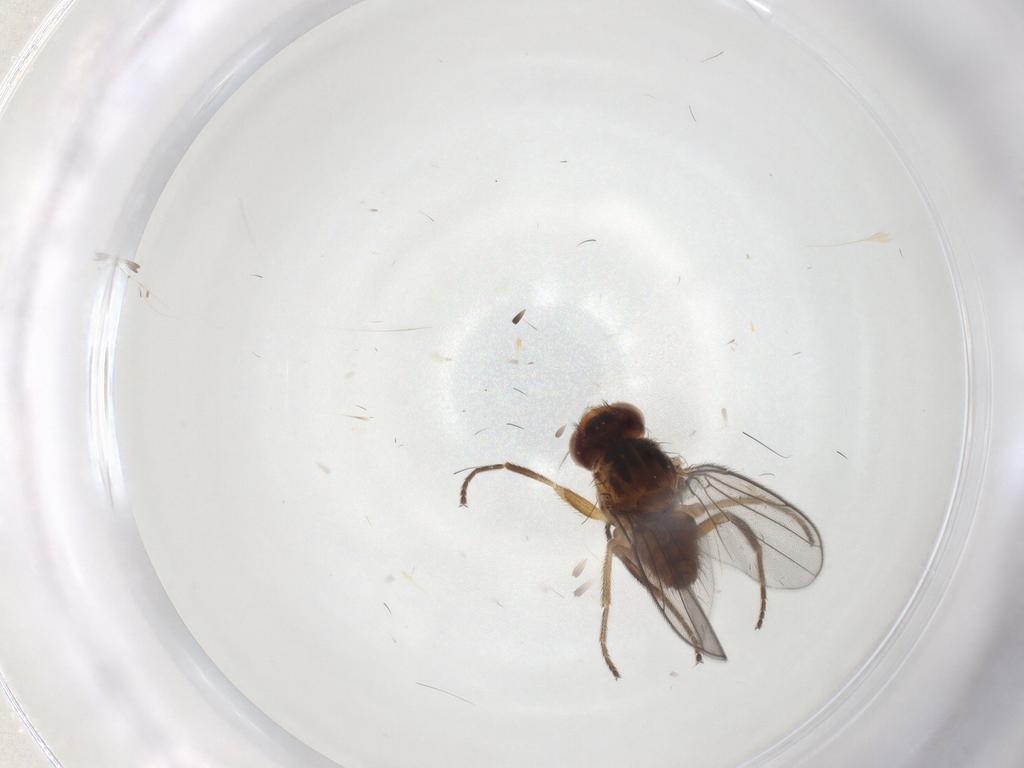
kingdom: Animalia
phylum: Arthropoda
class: Insecta
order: Diptera
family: Chloropidae
